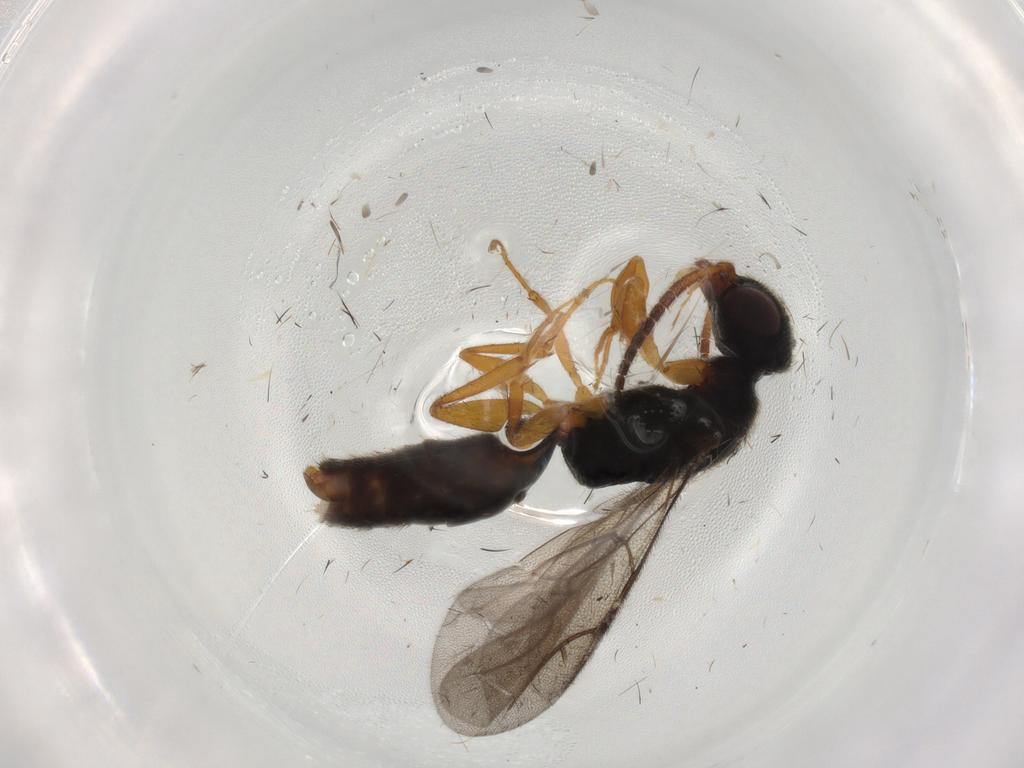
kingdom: Animalia
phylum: Arthropoda
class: Insecta
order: Hymenoptera
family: Bethylidae
